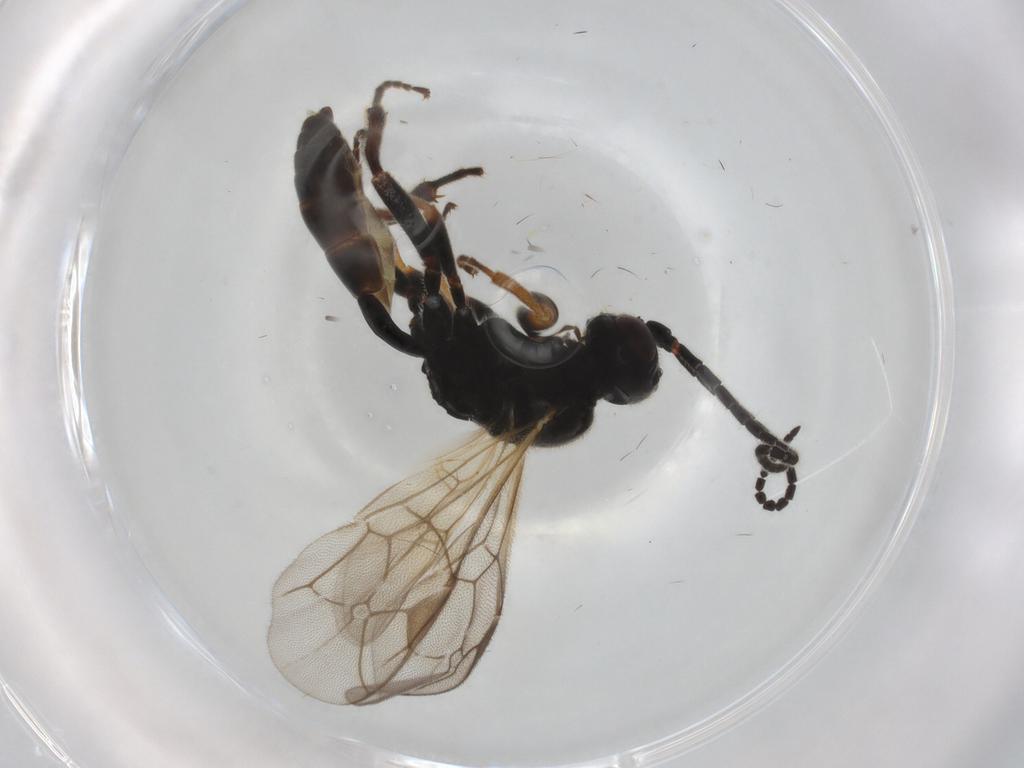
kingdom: Animalia
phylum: Arthropoda
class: Insecta
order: Hymenoptera
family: Ichneumonidae
